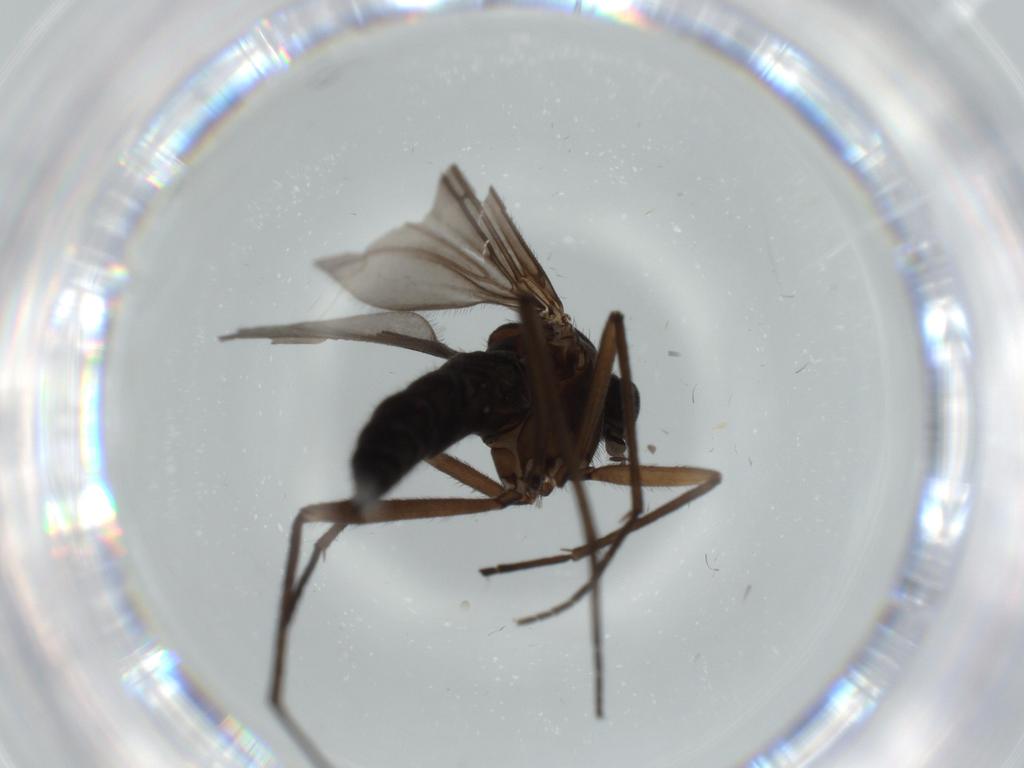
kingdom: Animalia
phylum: Arthropoda
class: Insecta
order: Diptera
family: Sciaridae
